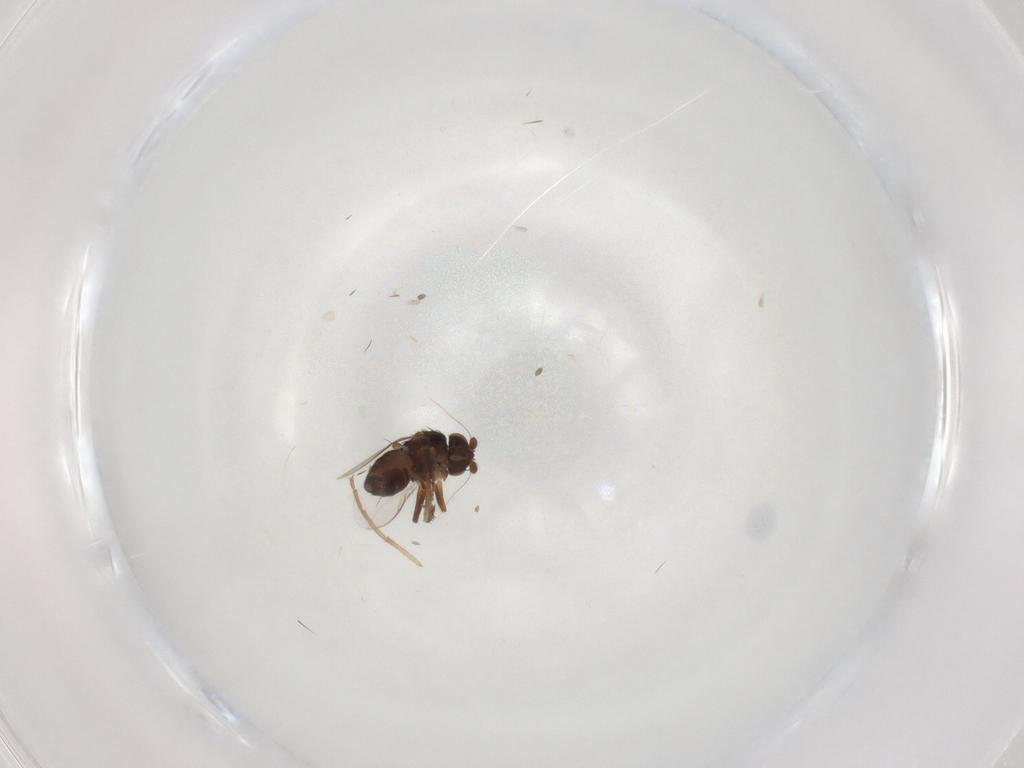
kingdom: Animalia
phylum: Arthropoda
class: Insecta
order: Diptera
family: Sphaeroceridae
